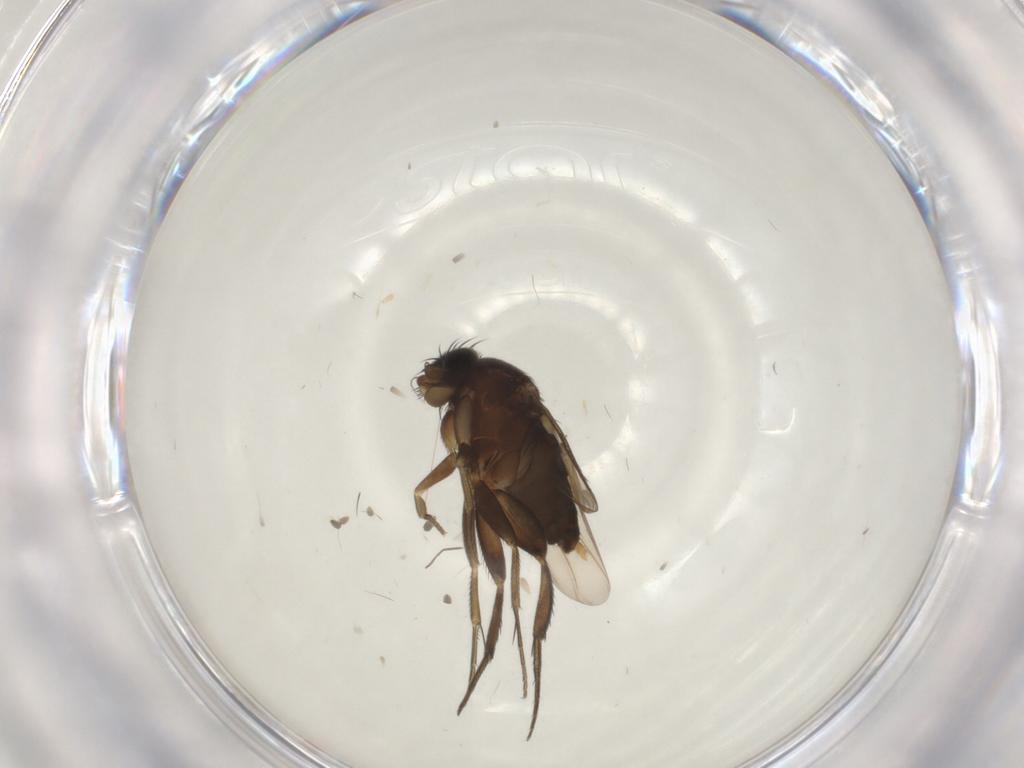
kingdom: Animalia
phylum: Arthropoda
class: Insecta
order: Diptera
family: Phoridae
